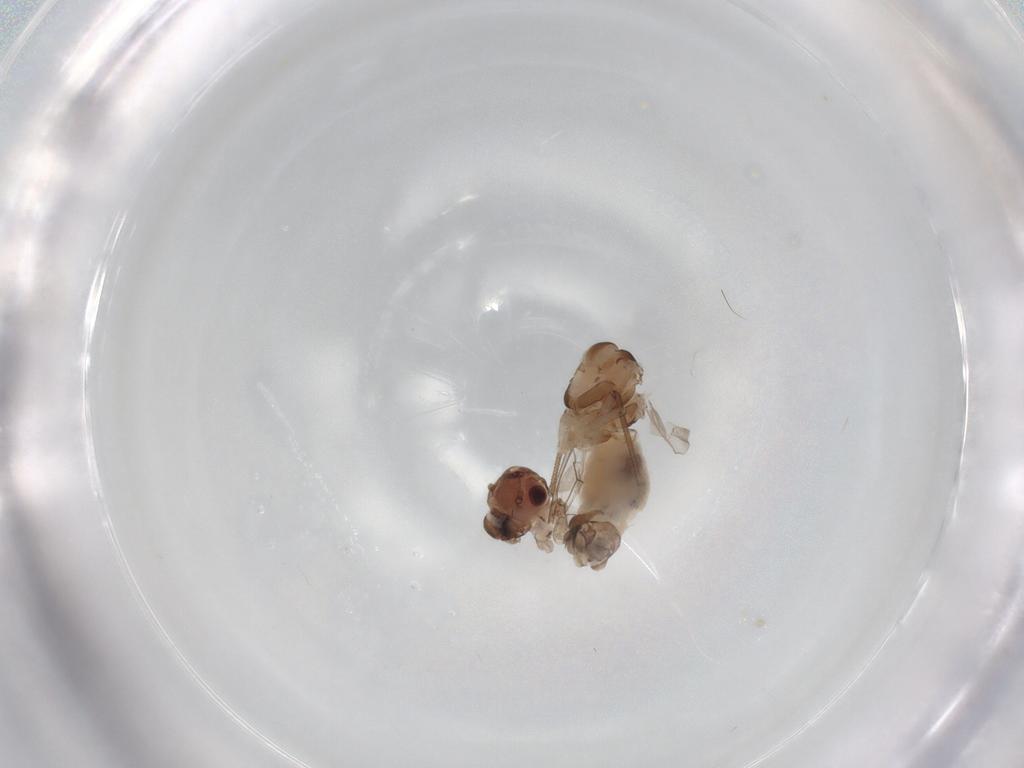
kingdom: Animalia
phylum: Arthropoda
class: Insecta
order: Psocodea
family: Peripsocidae
